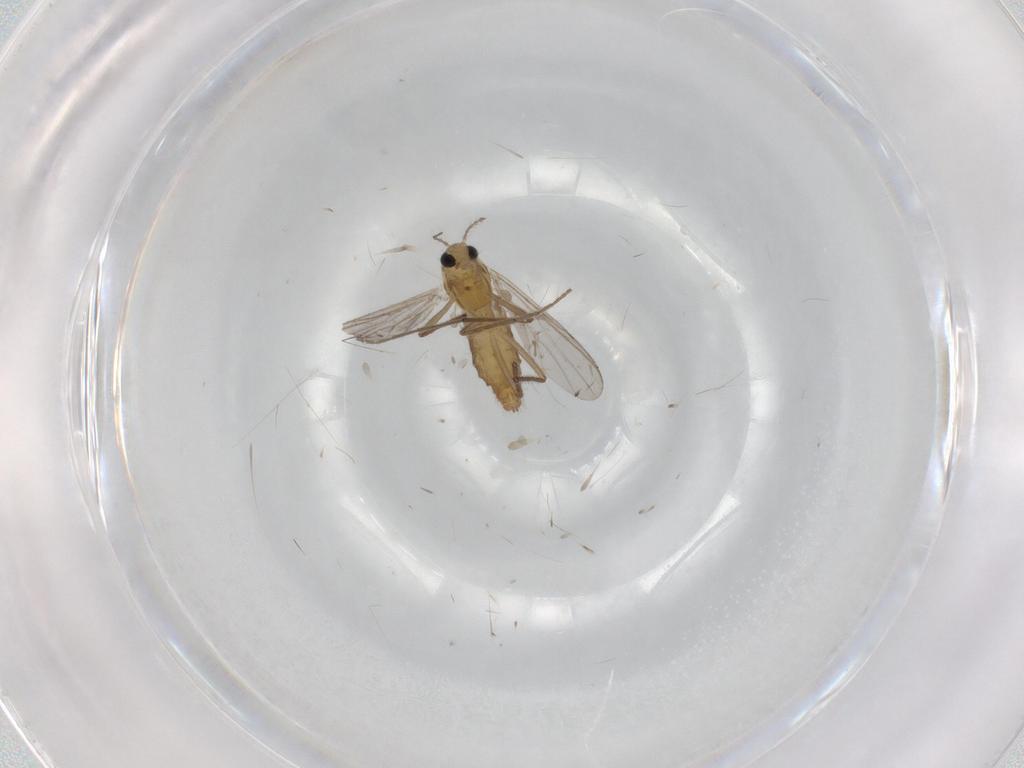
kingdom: Animalia
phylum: Arthropoda
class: Insecta
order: Diptera
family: Chironomidae
